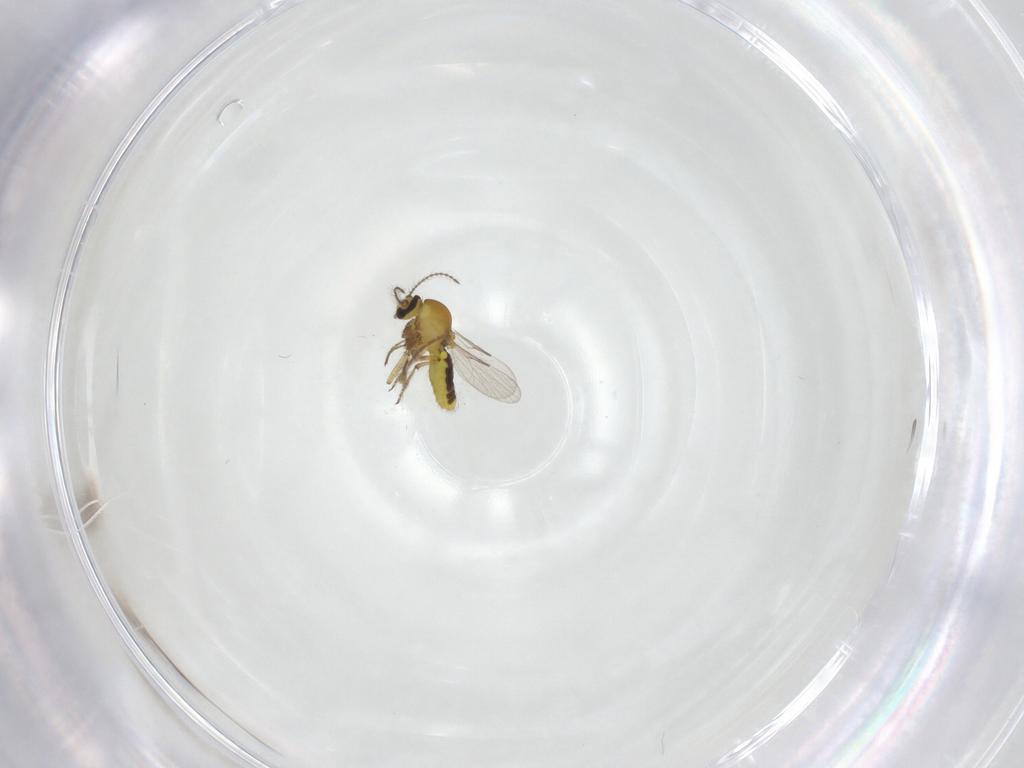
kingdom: Animalia
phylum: Arthropoda
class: Insecta
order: Diptera
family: Ceratopogonidae
